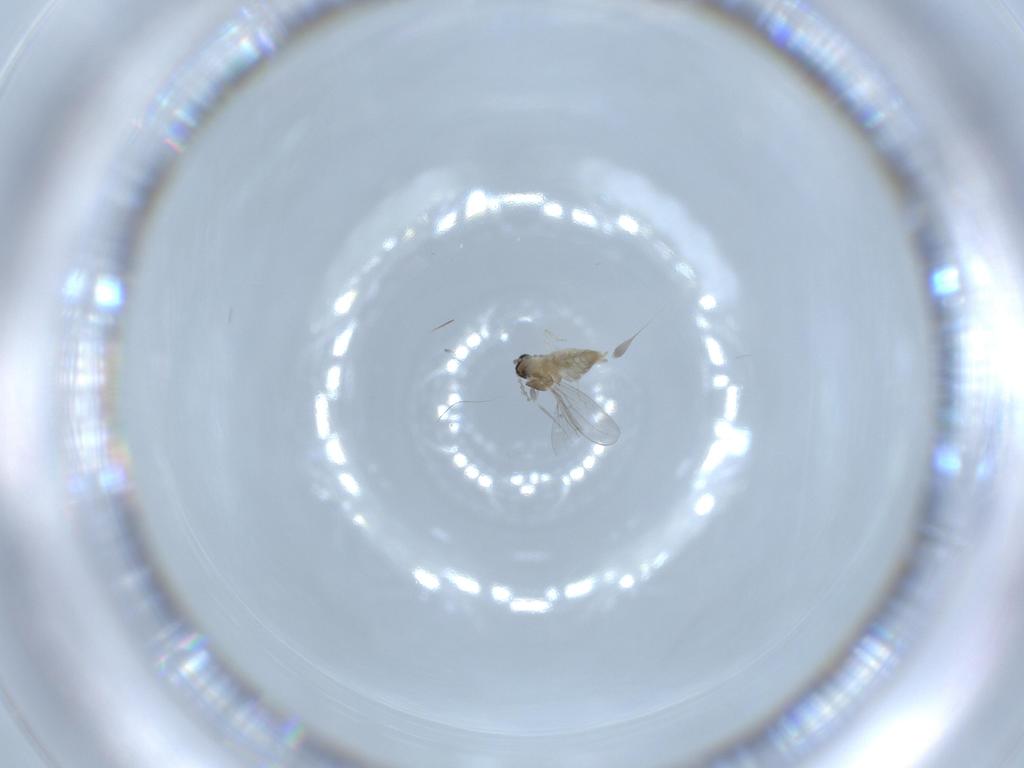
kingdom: Animalia
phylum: Arthropoda
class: Insecta
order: Diptera
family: Cecidomyiidae
